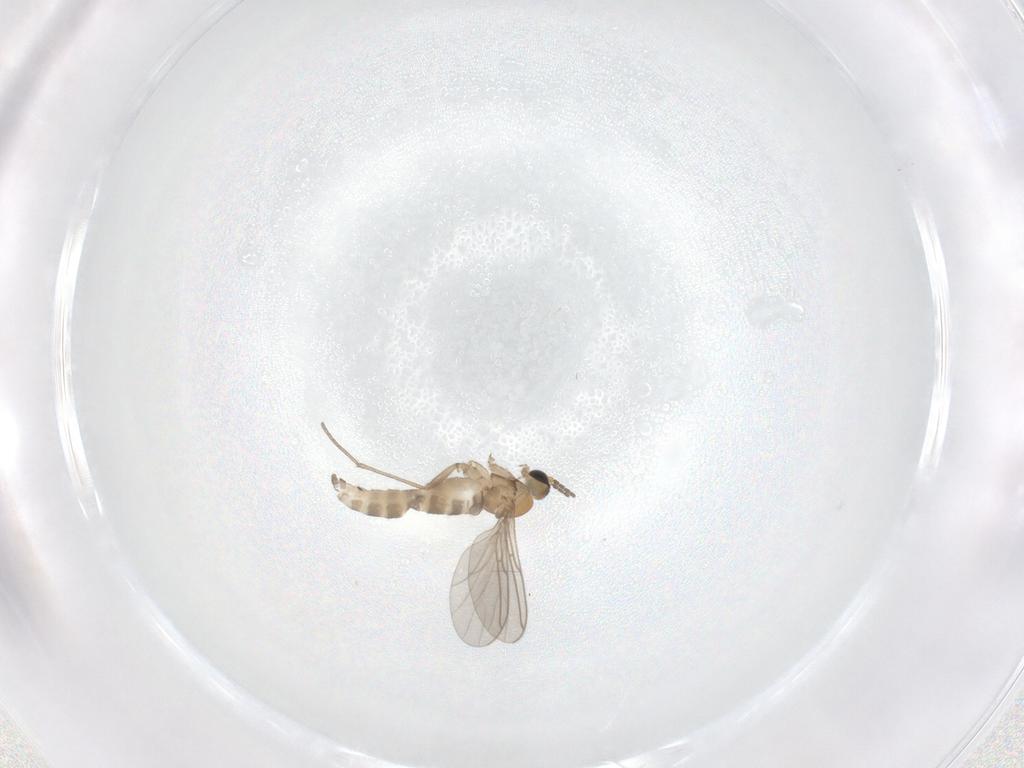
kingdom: Animalia
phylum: Arthropoda
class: Insecta
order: Diptera
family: Sciaridae
